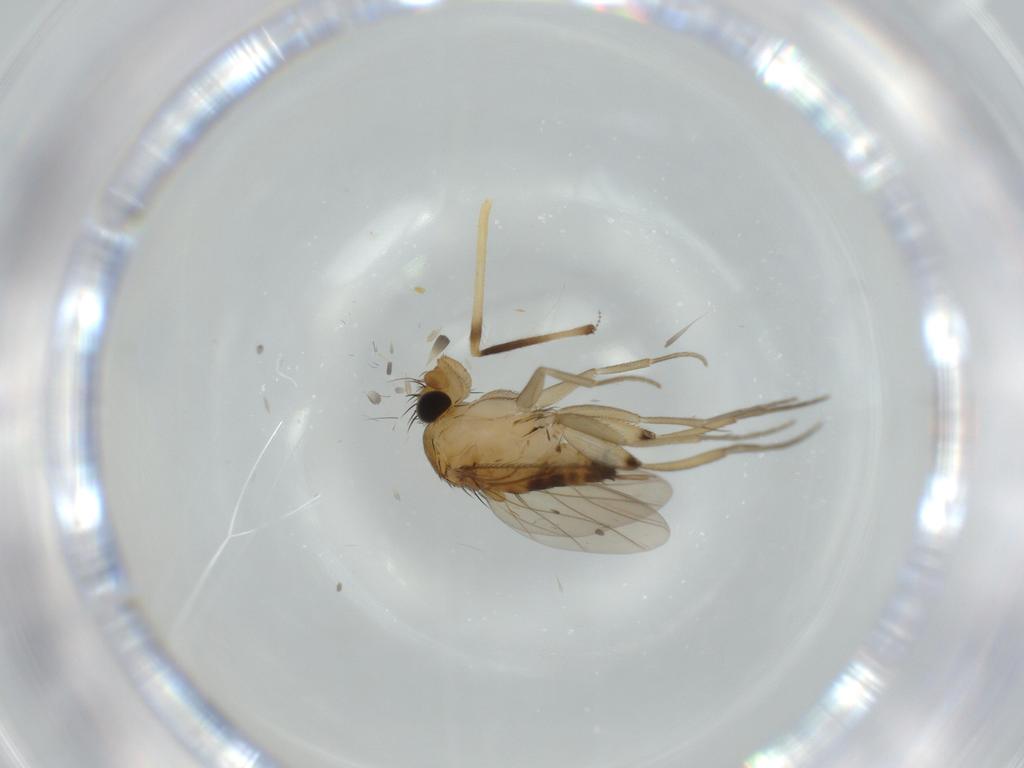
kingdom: Animalia
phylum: Arthropoda
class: Insecta
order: Diptera
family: Phoridae
